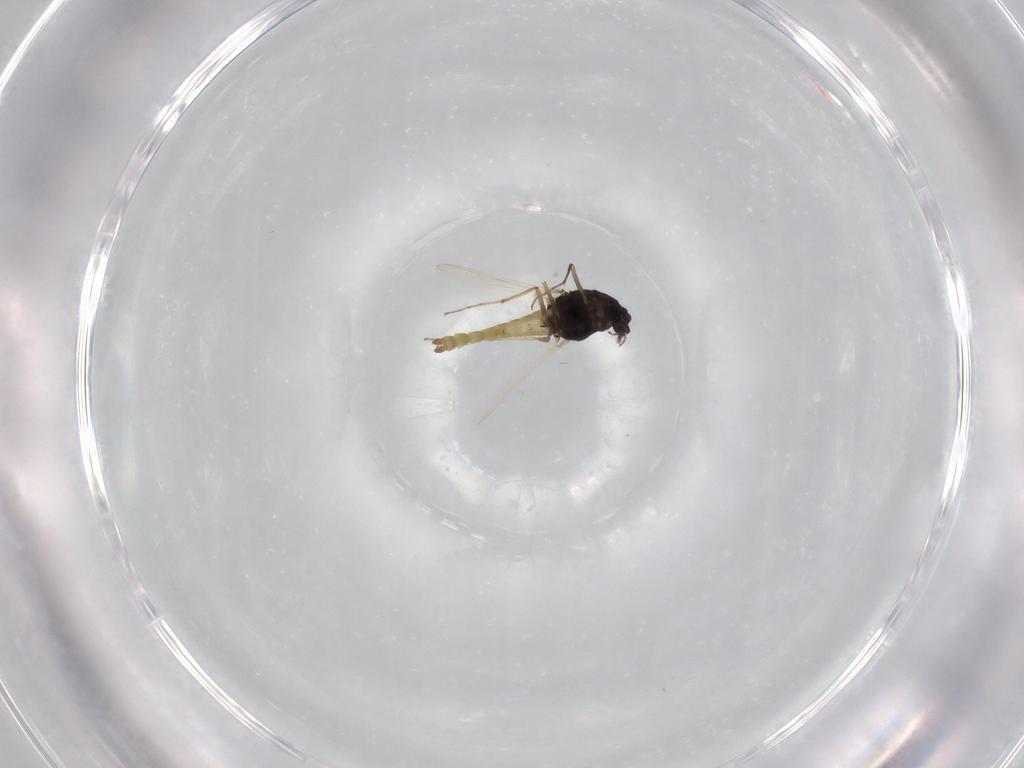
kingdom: Animalia
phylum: Arthropoda
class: Insecta
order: Diptera
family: Chironomidae
